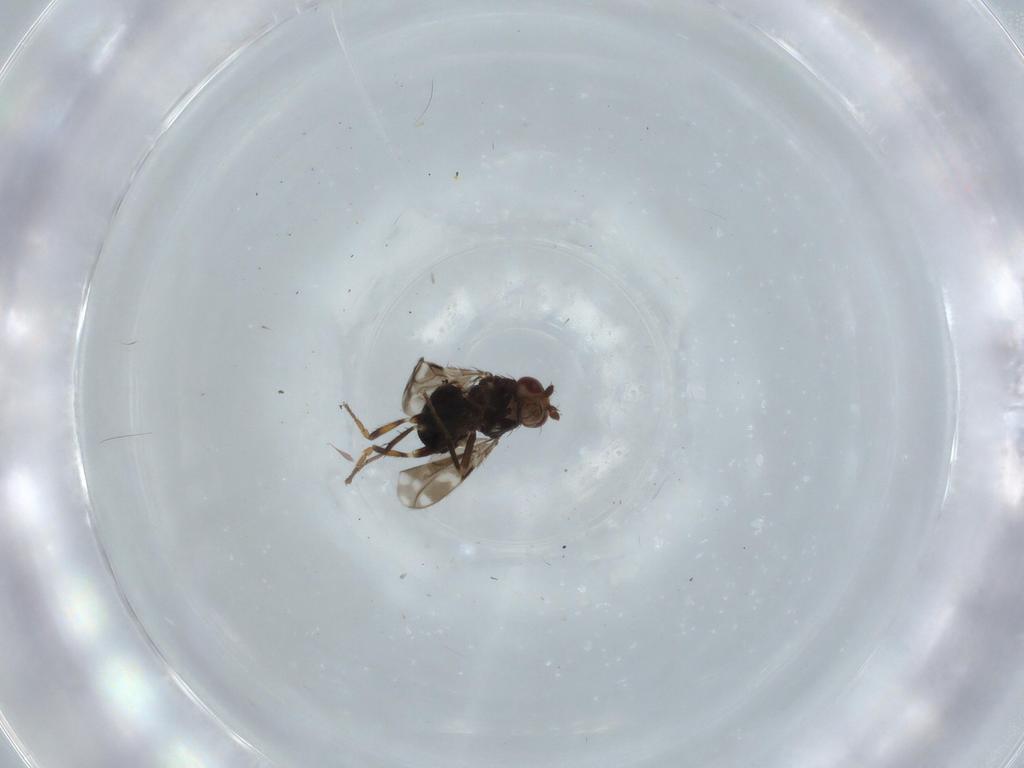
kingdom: Animalia
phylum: Arthropoda
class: Insecta
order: Diptera
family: Sphaeroceridae
